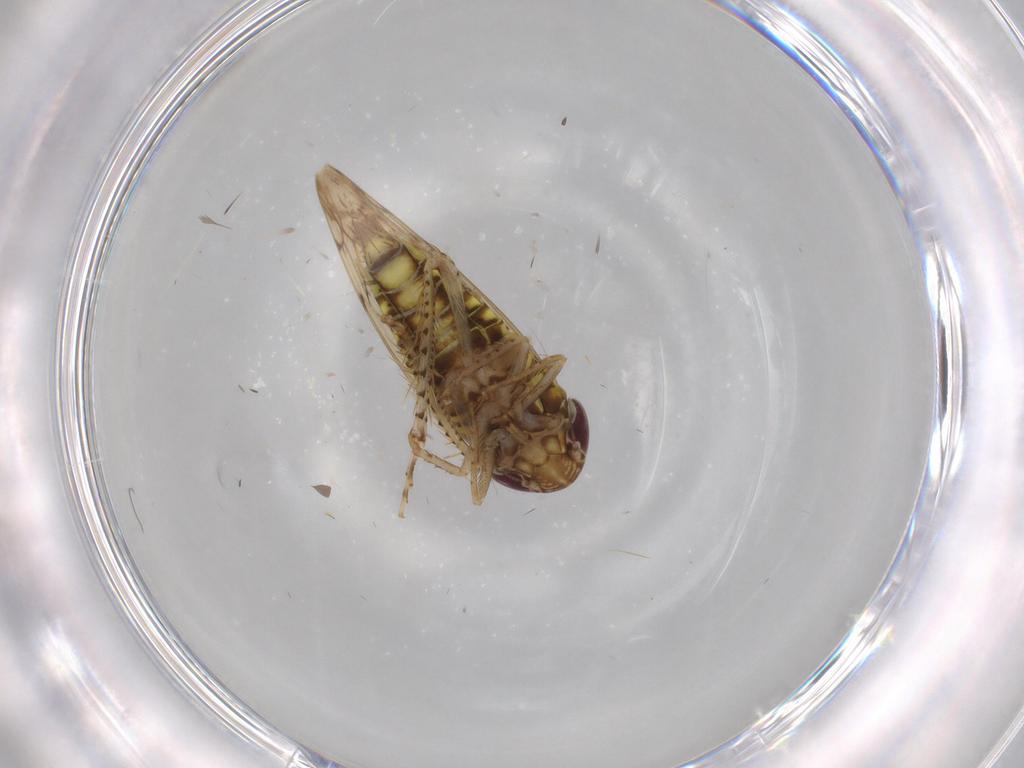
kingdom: Animalia
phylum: Arthropoda
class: Insecta
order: Hemiptera
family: Cicadellidae
